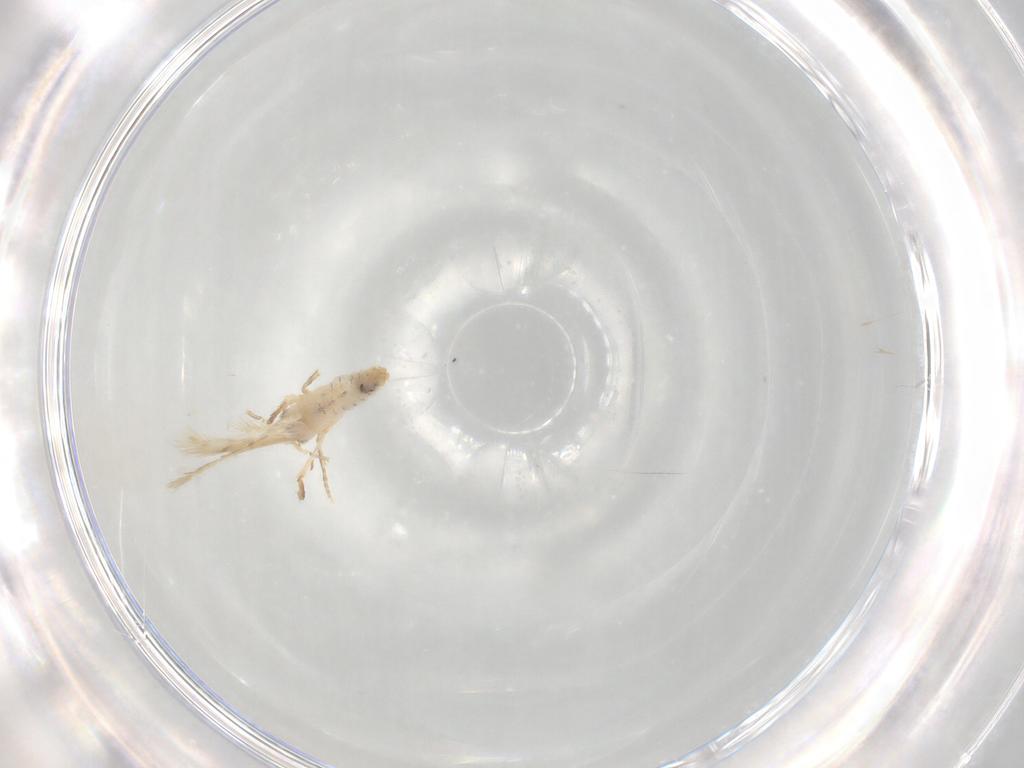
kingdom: Animalia
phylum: Arthropoda
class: Insecta
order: Lepidoptera
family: Nepticulidae
